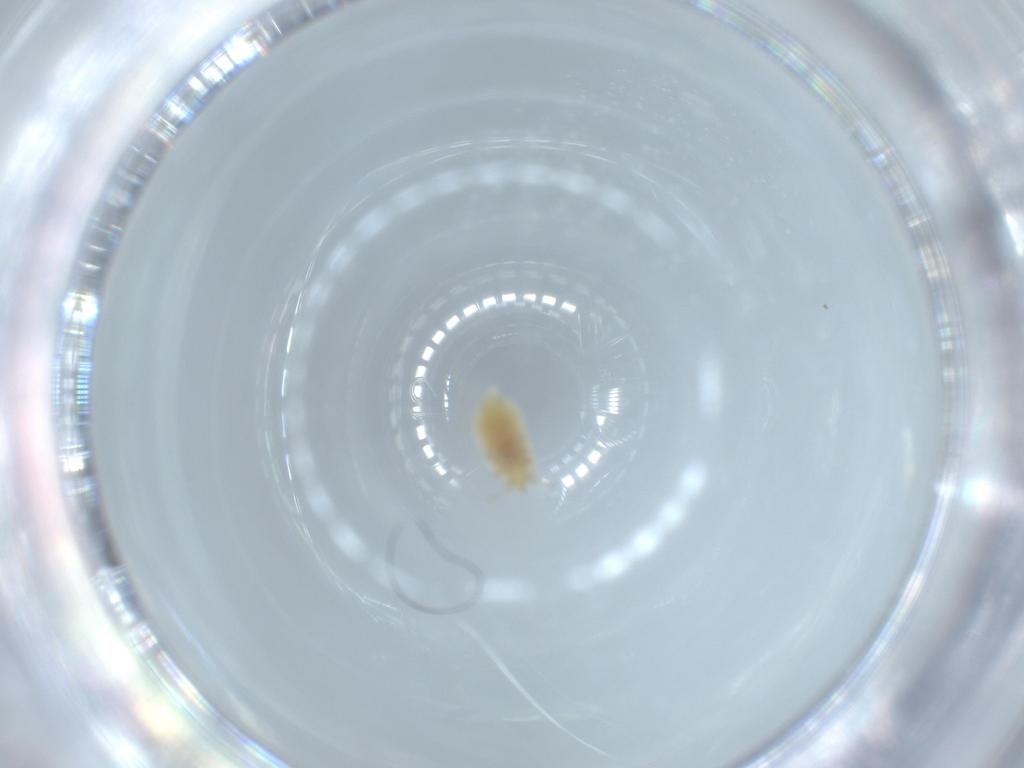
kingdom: Animalia
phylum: Arthropoda
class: Insecta
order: Neuroptera
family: Coniopterygidae
